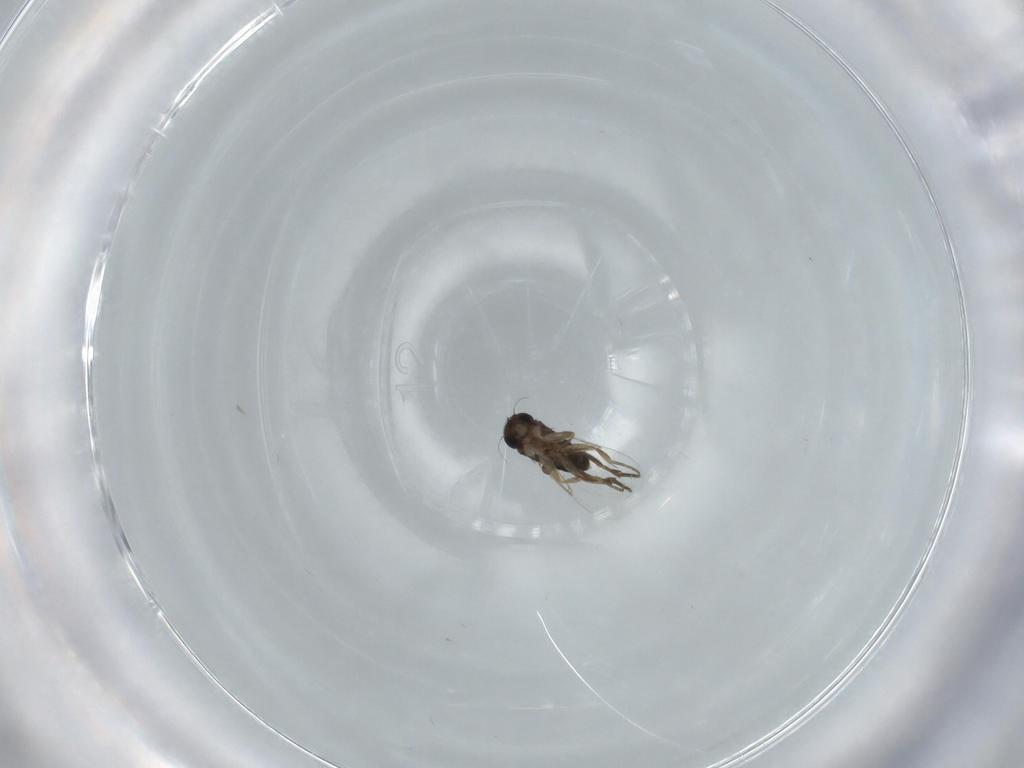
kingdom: Animalia
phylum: Arthropoda
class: Insecta
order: Diptera
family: Phoridae
